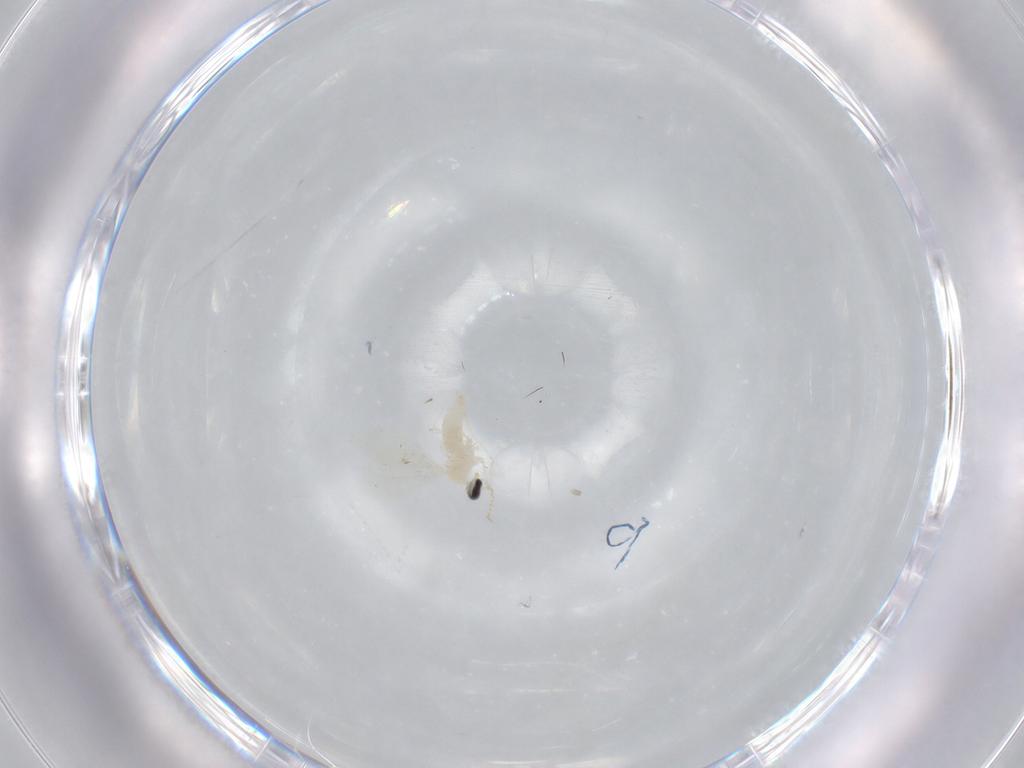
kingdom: Animalia
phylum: Arthropoda
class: Insecta
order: Diptera
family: Cecidomyiidae
